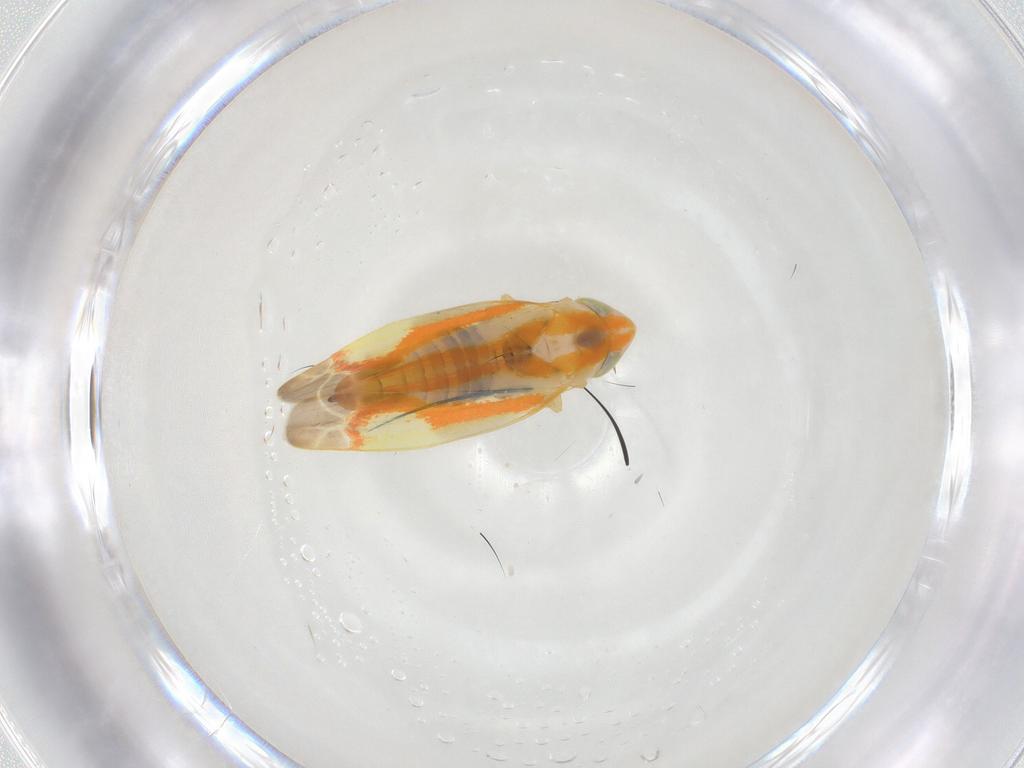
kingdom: Animalia
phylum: Arthropoda
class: Insecta
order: Hemiptera
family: Cicadellidae
